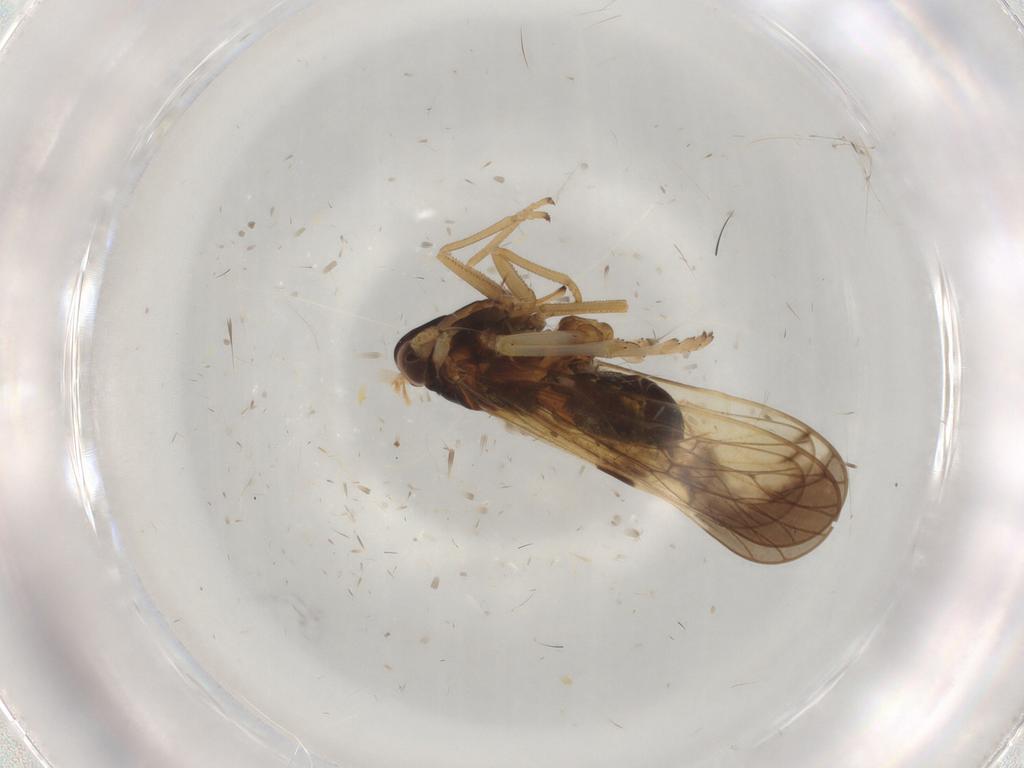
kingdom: Animalia
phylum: Arthropoda
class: Insecta
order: Hemiptera
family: Delphacidae
